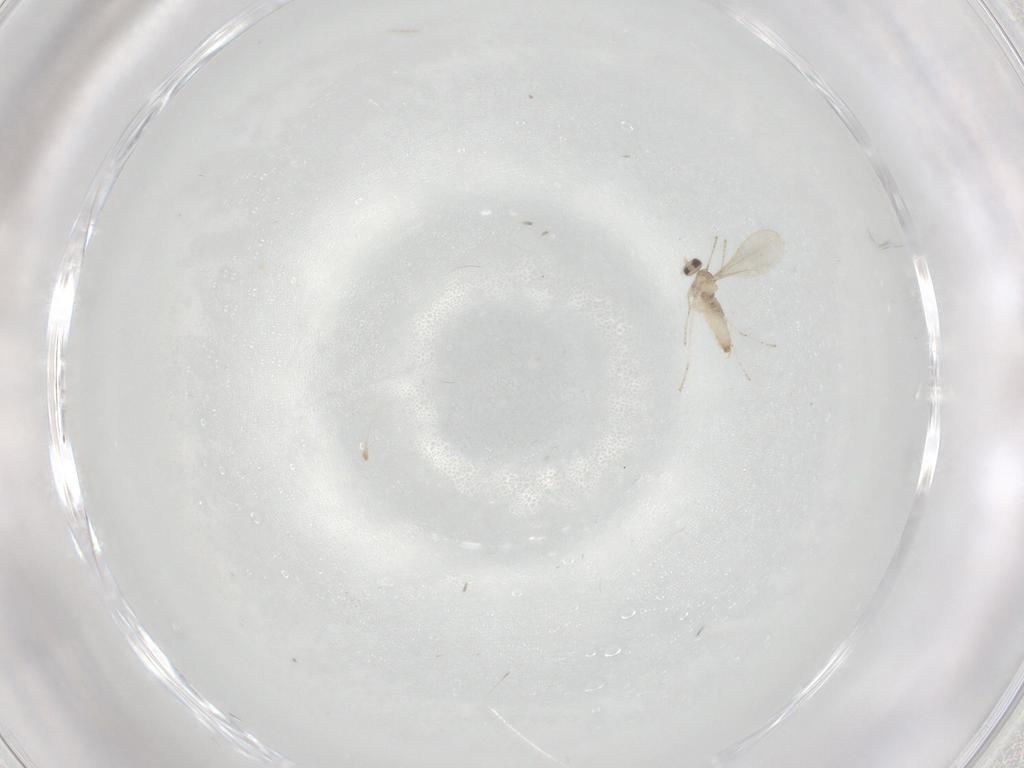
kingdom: Animalia
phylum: Arthropoda
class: Insecta
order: Diptera
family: Cecidomyiidae
